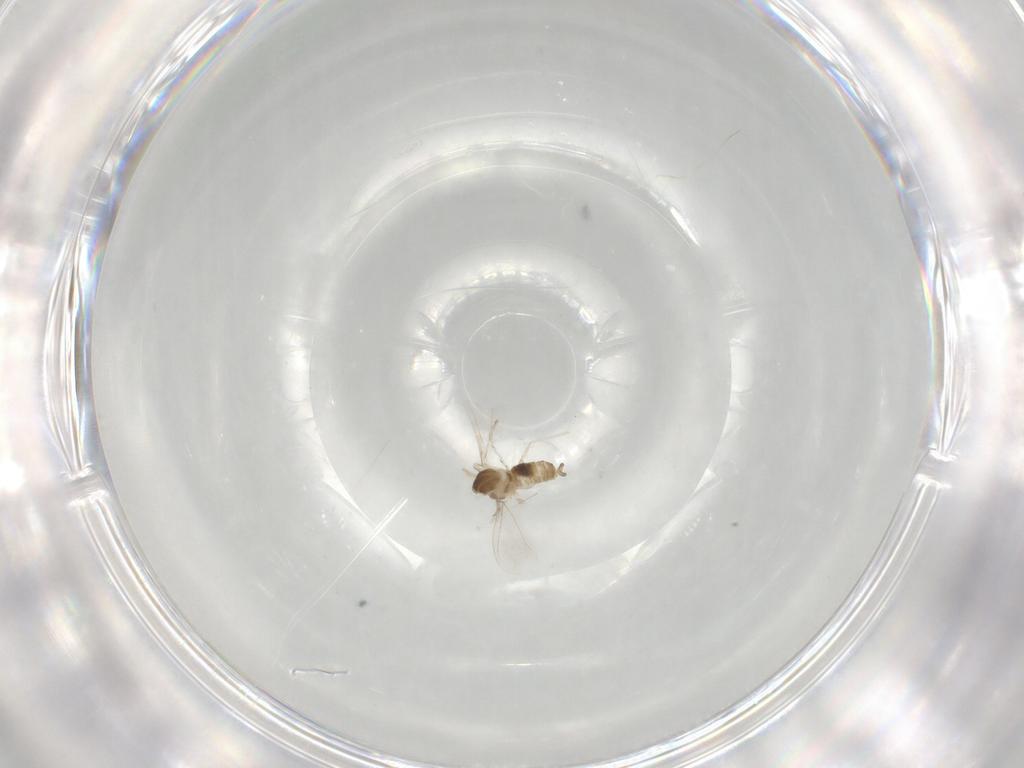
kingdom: Animalia
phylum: Arthropoda
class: Insecta
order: Diptera
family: Cecidomyiidae
